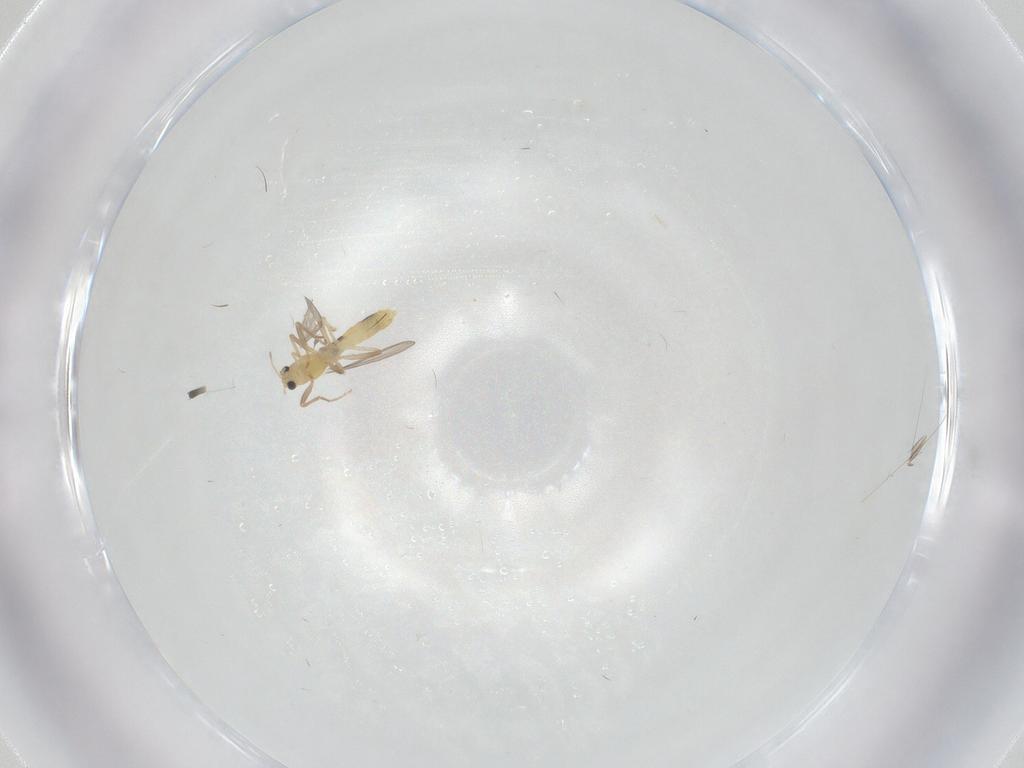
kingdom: Animalia
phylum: Arthropoda
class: Insecta
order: Diptera
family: Chironomidae
